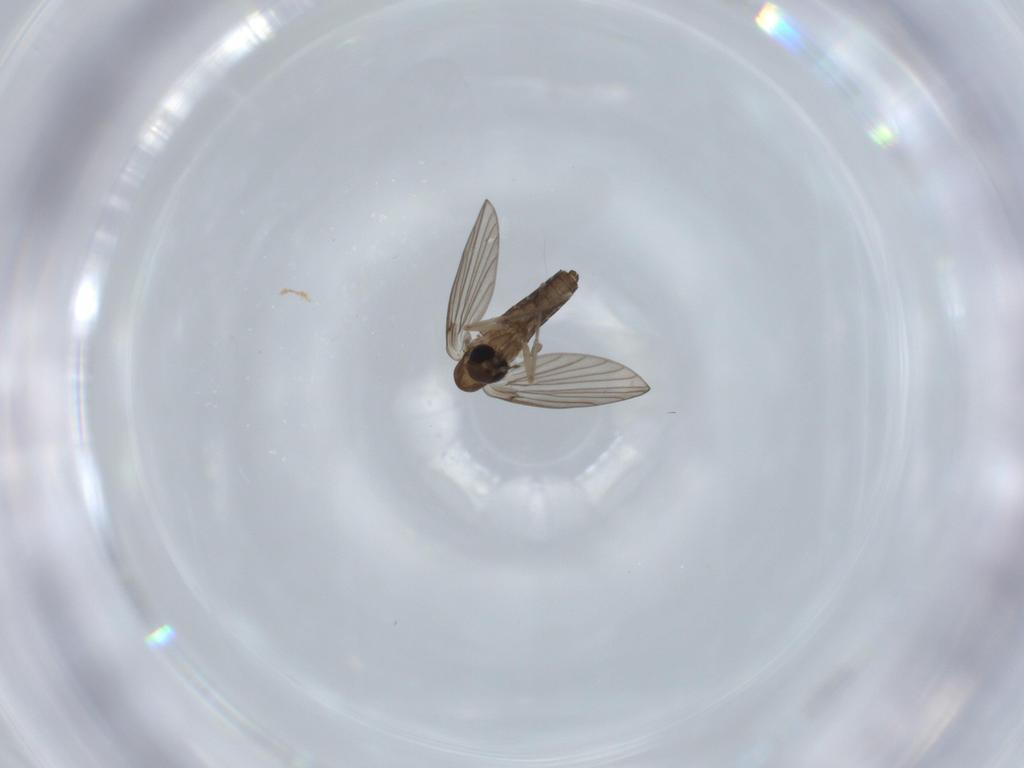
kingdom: Animalia
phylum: Arthropoda
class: Insecta
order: Diptera
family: Psychodidae
